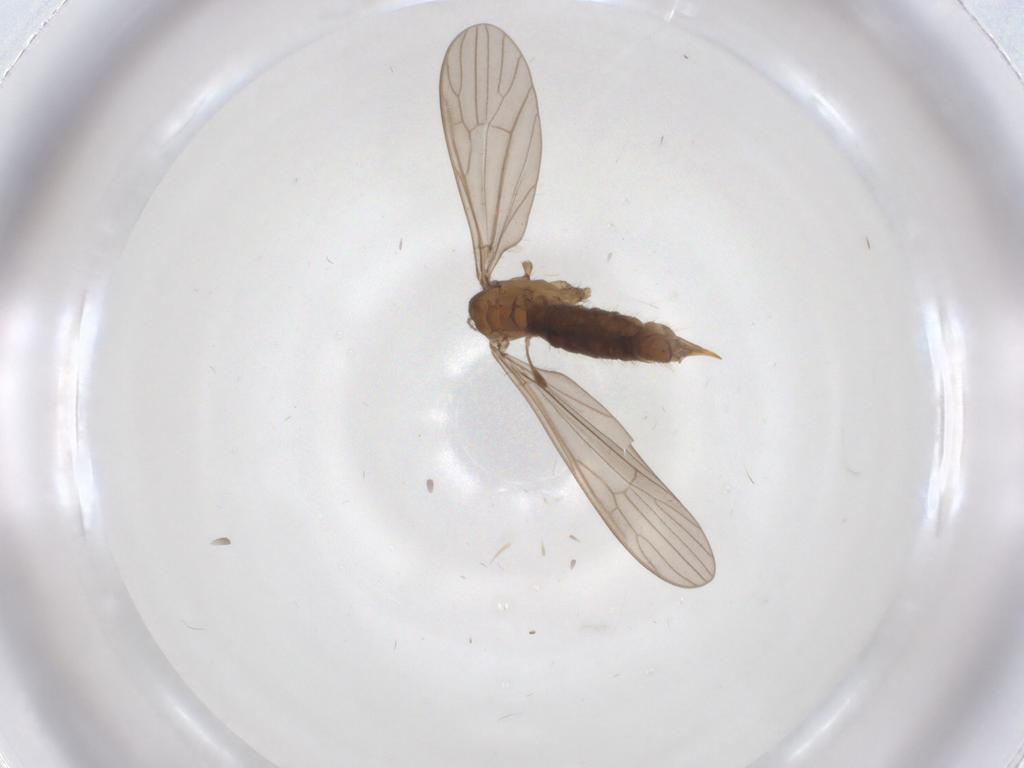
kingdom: Animalia
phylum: Arthropoda
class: Insecta
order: Diptera
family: Limoniidae
